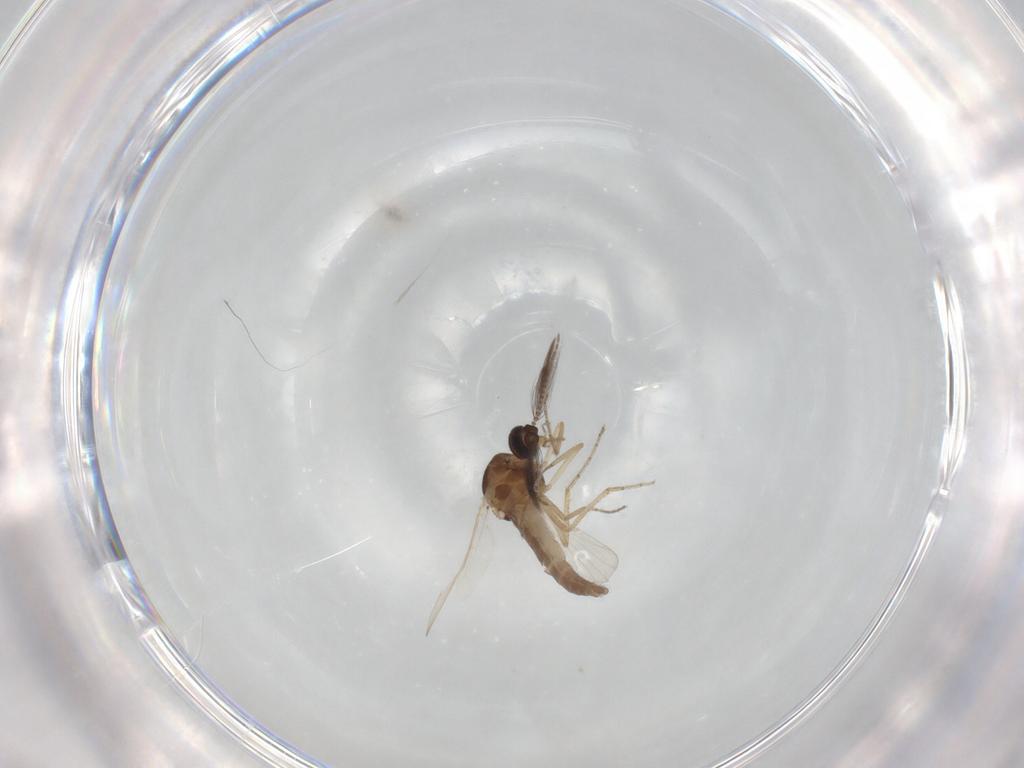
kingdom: Animalia
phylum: Arthropoda
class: Insecta
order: Diptera
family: Ceratopogonidae
